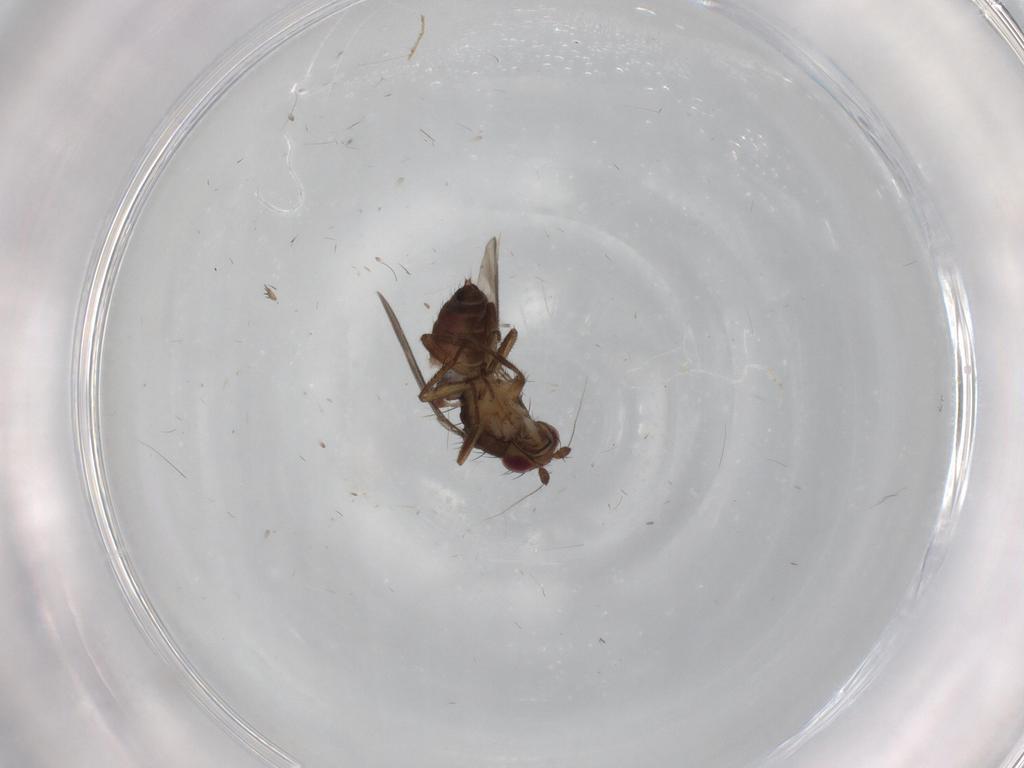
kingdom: Animalia
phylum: Arthropoda
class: Insecta
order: Diptera
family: Sphaeroceridae
